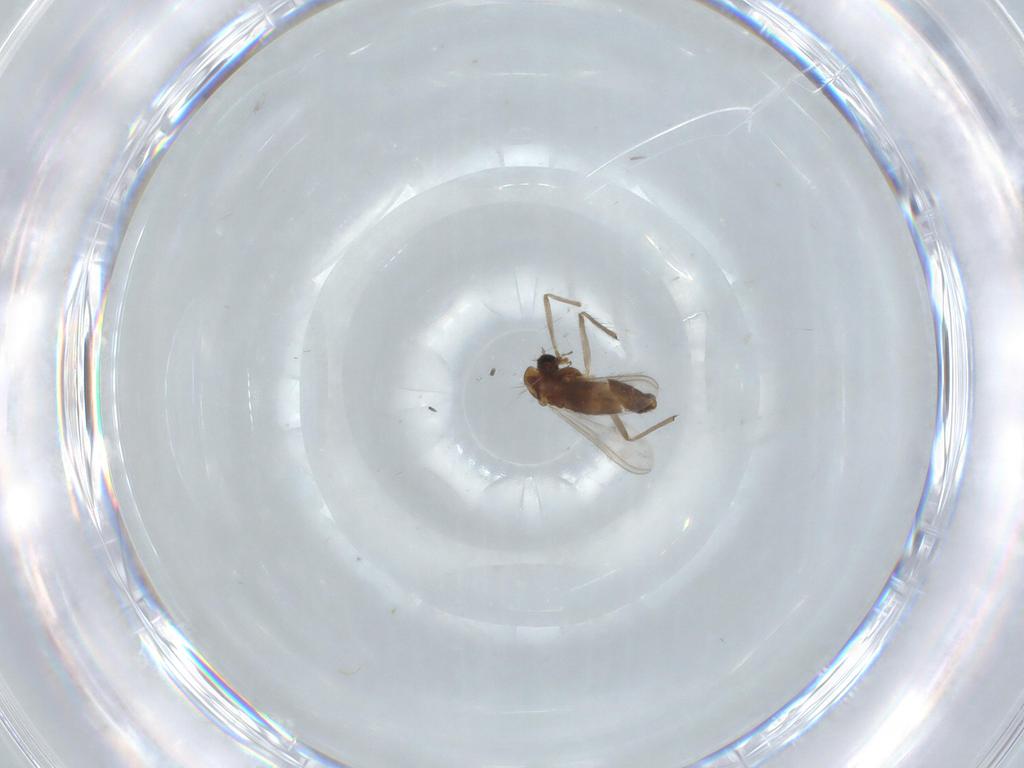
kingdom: Animalia
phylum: Arthropoda
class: Insecta
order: Diptera
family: Chironomidae
